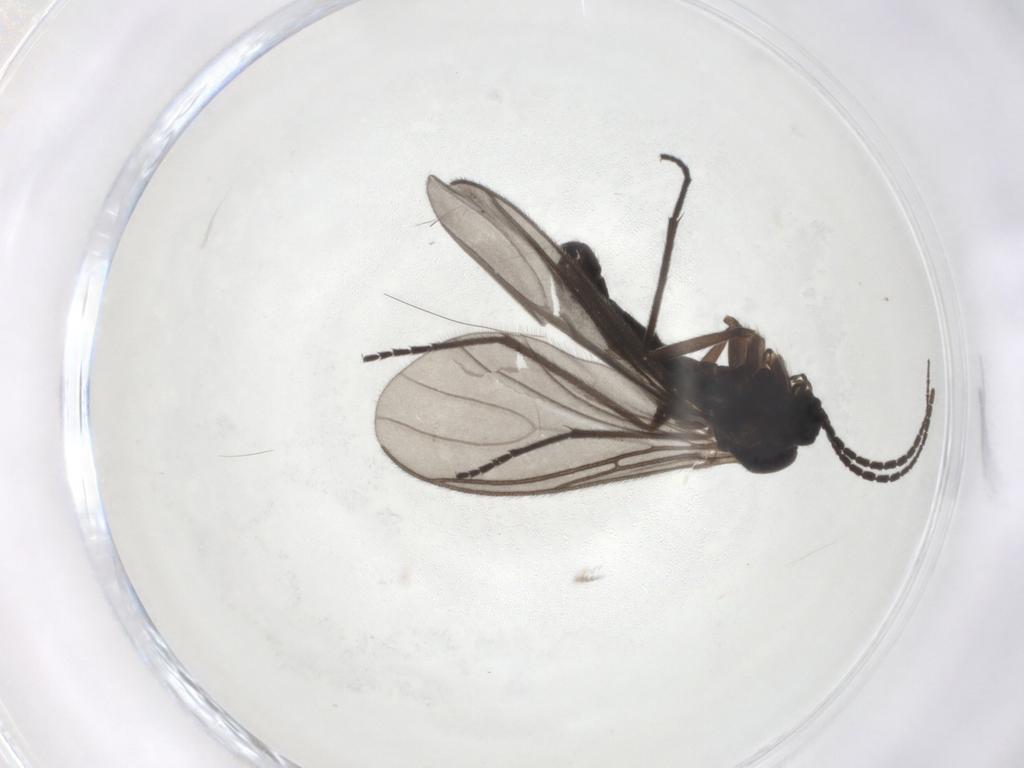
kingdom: Animalia
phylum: Arthropoda
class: Insecta
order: Diptera
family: Sciaridae
